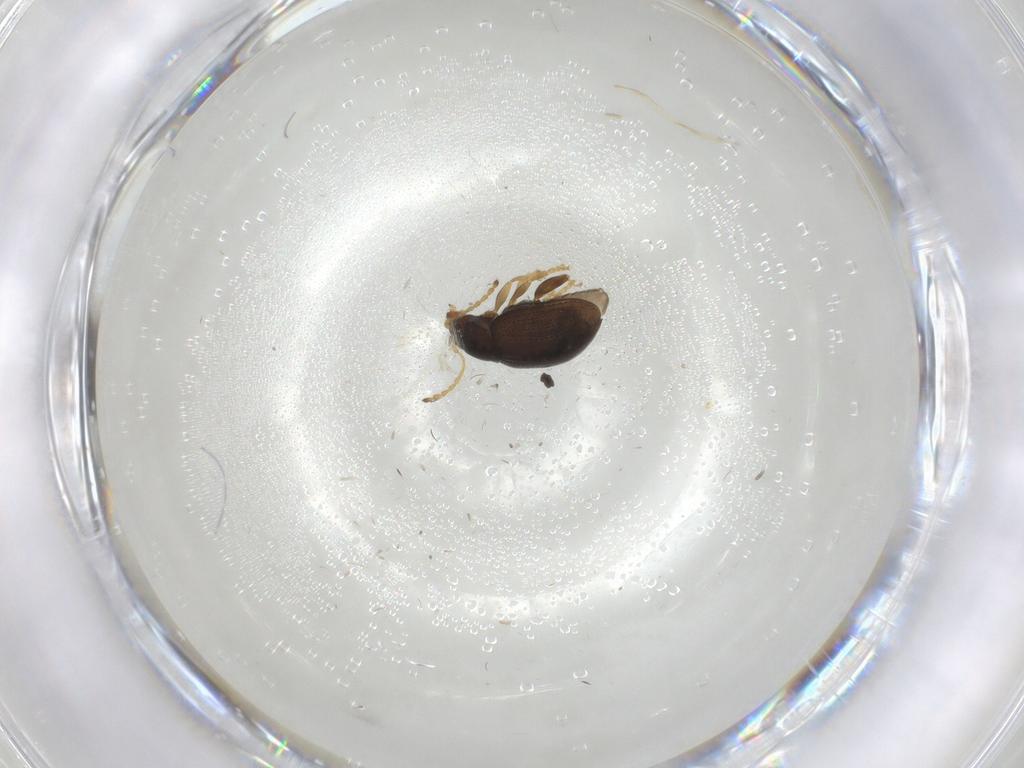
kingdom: Animalia
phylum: Arthropoda
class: Insecta
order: Coleoptera
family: Chrysomelidae
